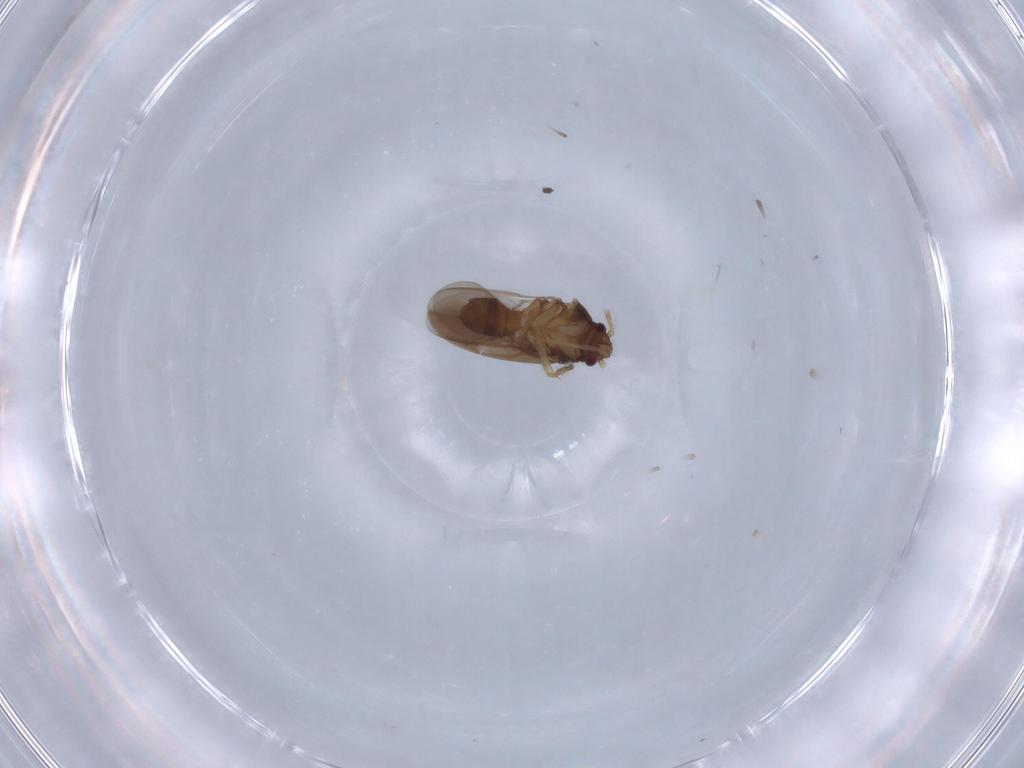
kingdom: Animalia
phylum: Arthropoda
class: Insecta
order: Hemiptera
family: Ceratocombidae
